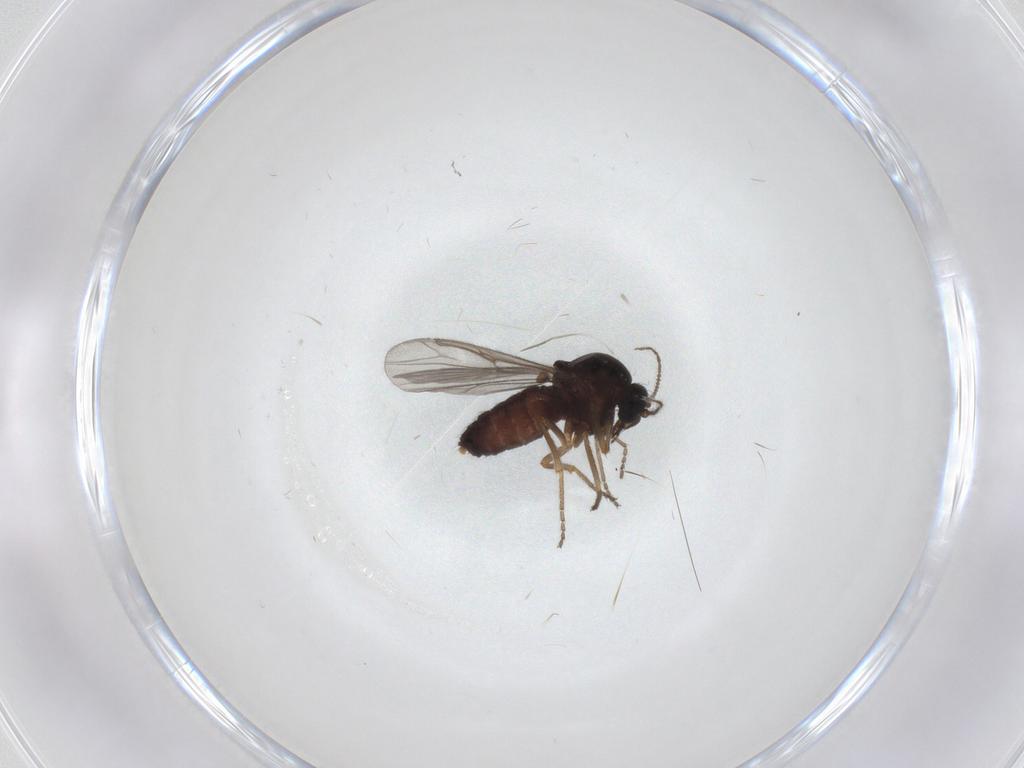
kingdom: Animalia
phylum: Arthropoda
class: Insecta
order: Diptera
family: Ceratopogonidae
